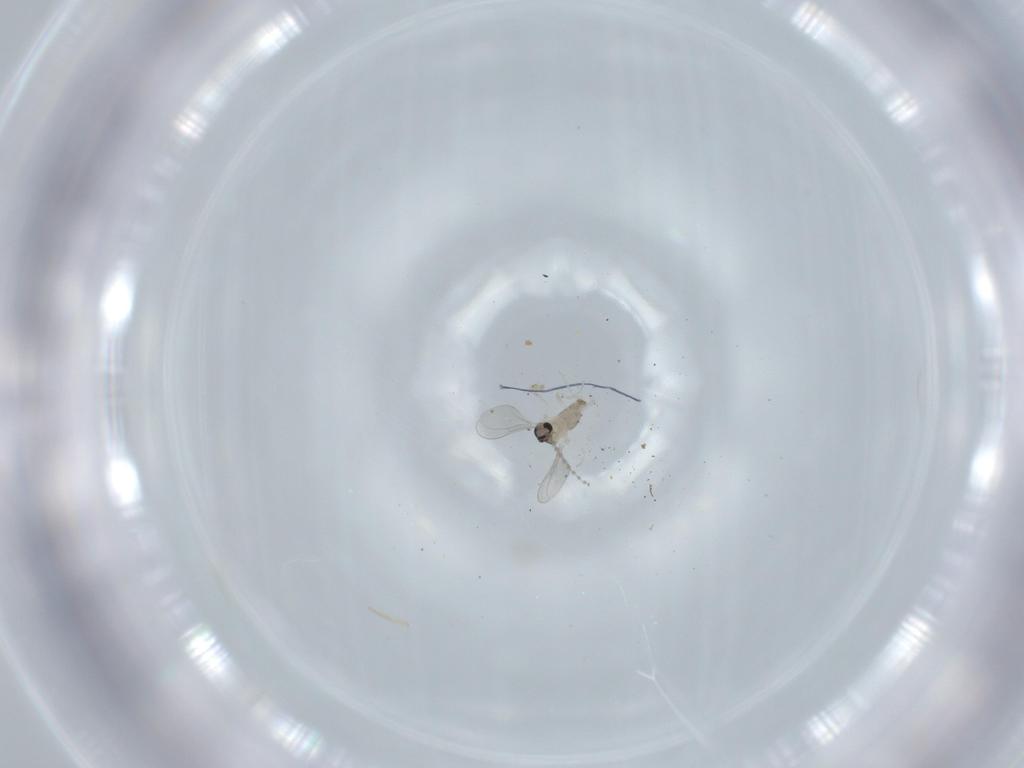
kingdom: Animalia
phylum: Arthropoda
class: Insecta
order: Diptera
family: Cecidomyiidae
